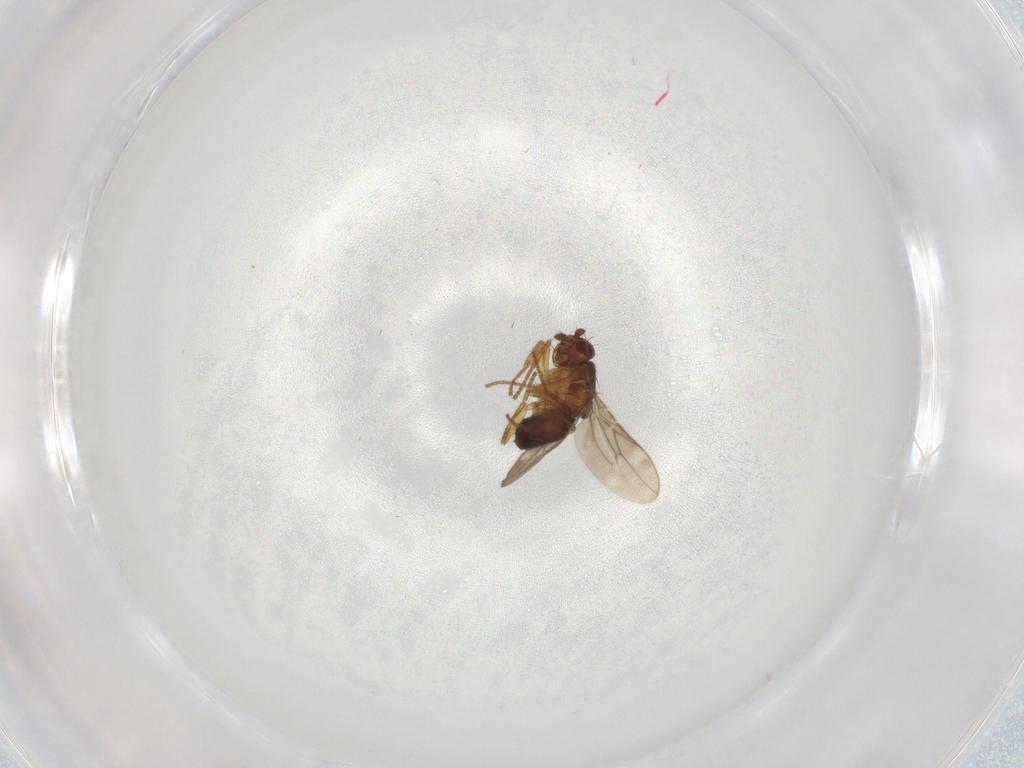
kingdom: Animalia
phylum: Arthropoda
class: Insecta
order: Diptera
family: Sphaeroceridae
